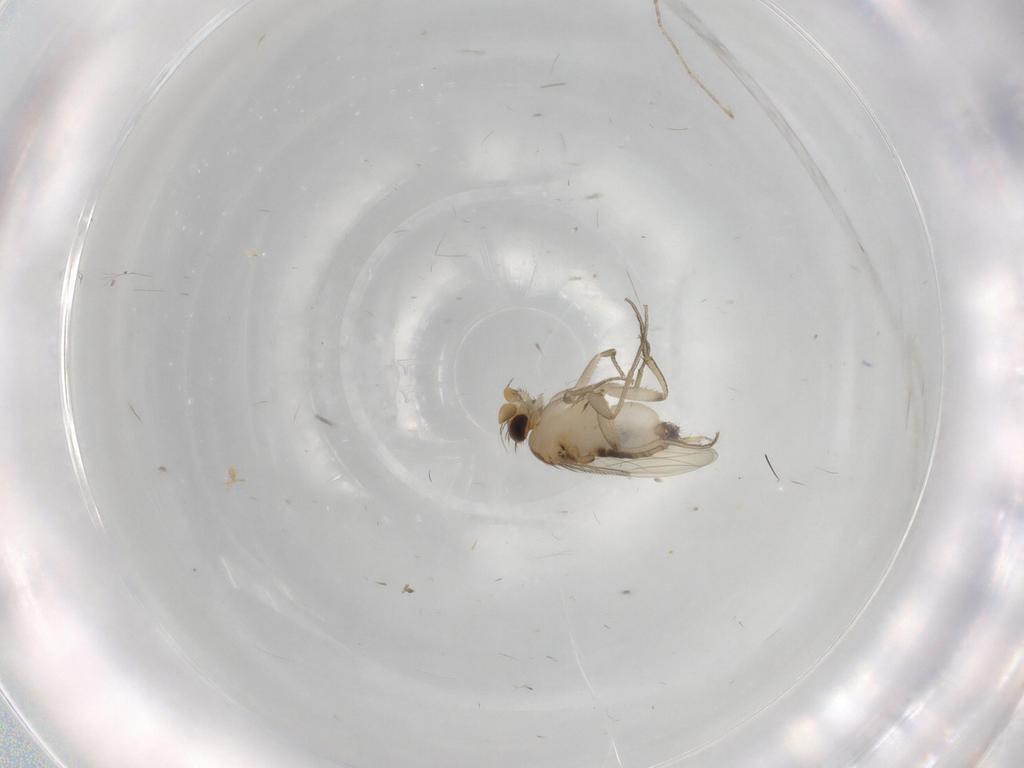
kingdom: Animalia
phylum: Arthropoda
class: Insecta
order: Diptera
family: Phoridae
